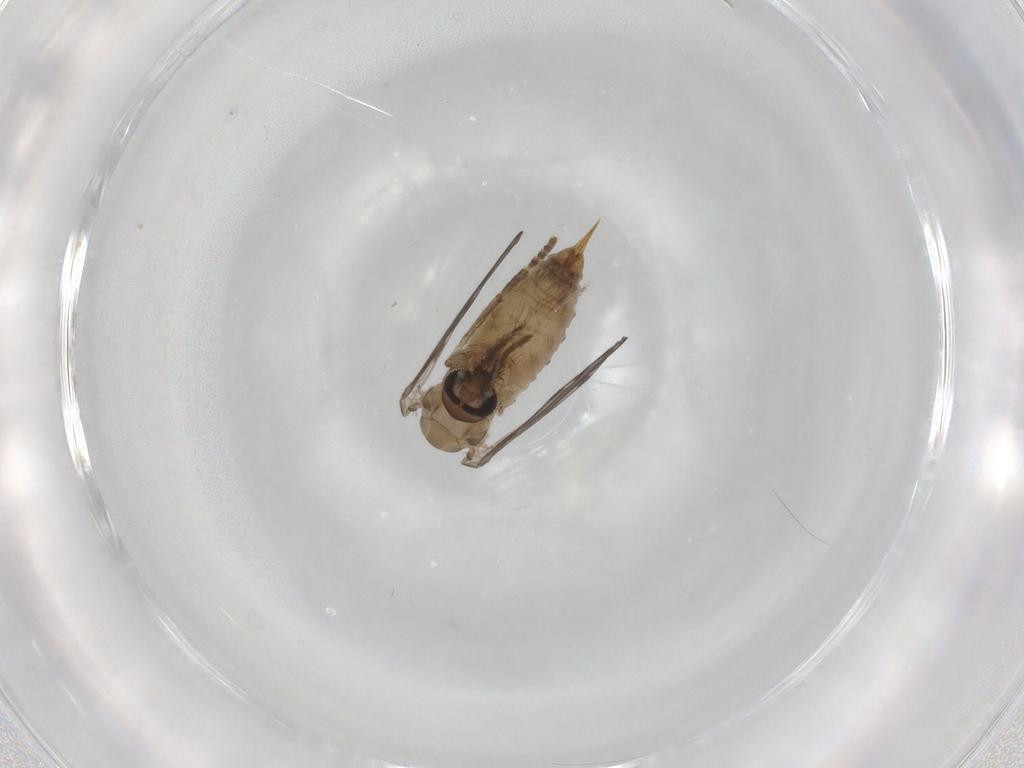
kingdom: Animalia
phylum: Arthropoda
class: Insecta
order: Diptera
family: Psychodidae
